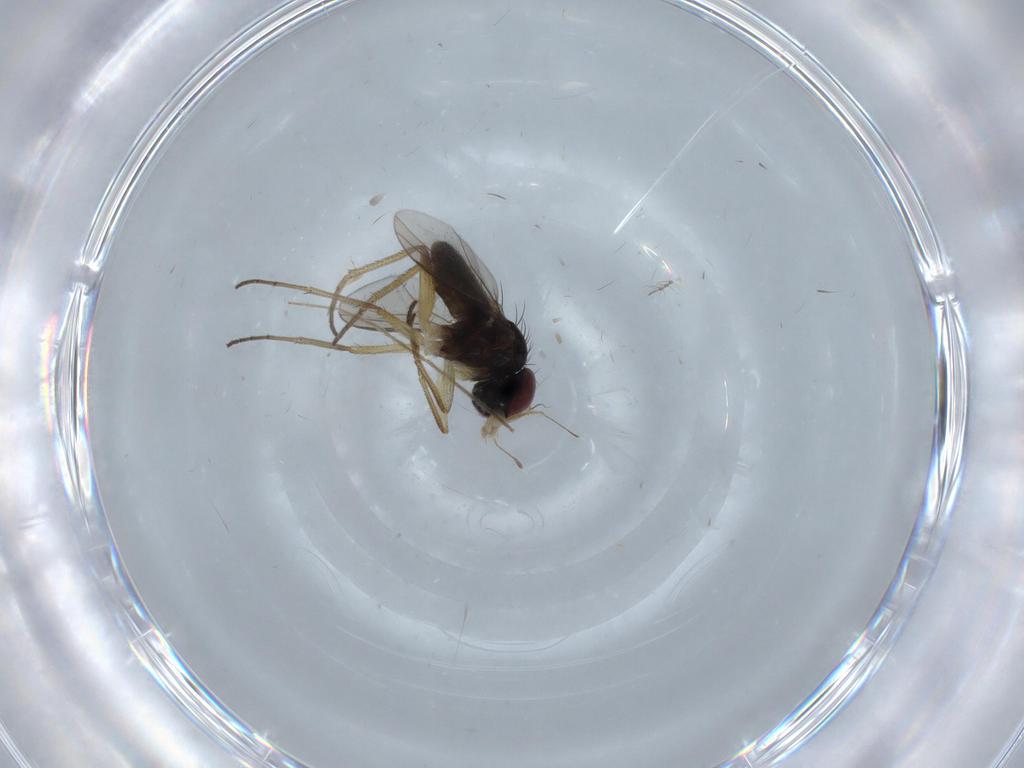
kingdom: Animalia
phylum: Arthropoda
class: Insecta
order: Diptera
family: Dolichopodidae
